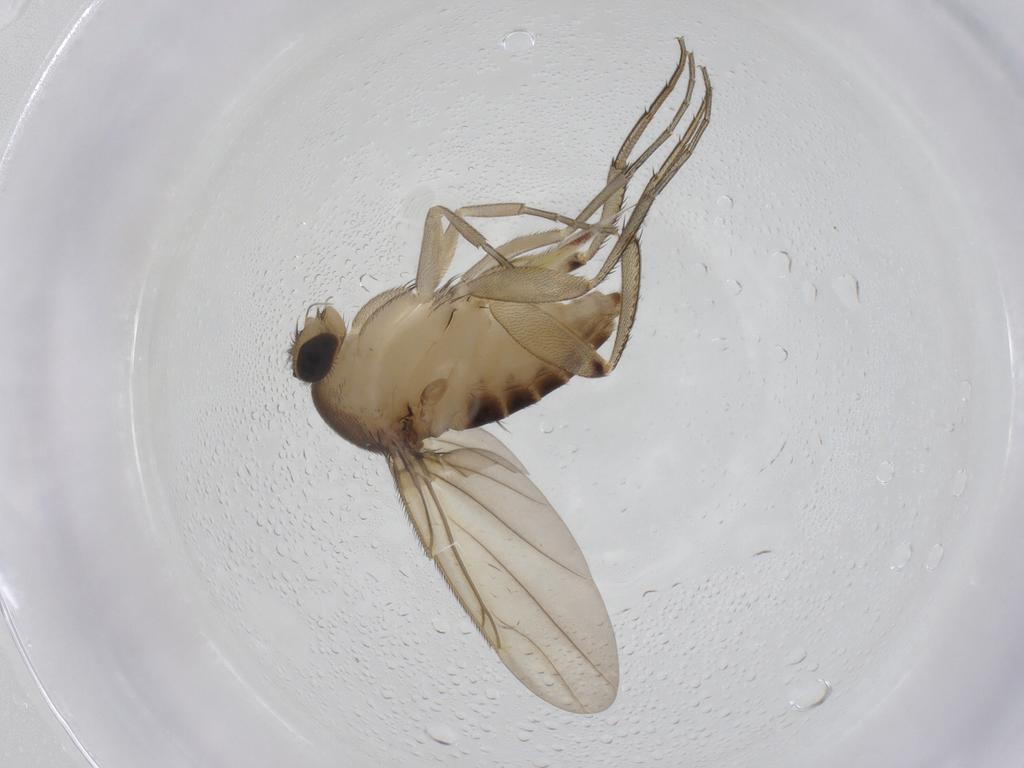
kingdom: Animalia
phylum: Arthropoda
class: Insecta
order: Diptera
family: Phoridae
